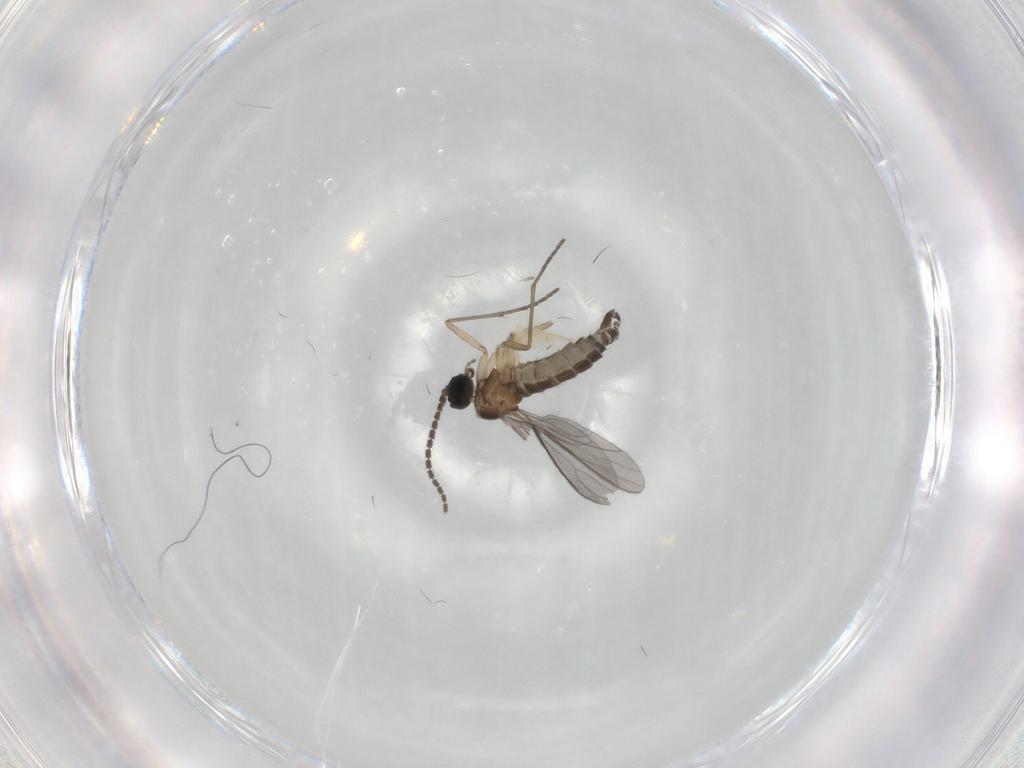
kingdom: Animalia
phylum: Arthropoda
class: Insecta
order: Diptera
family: Sciaridae
